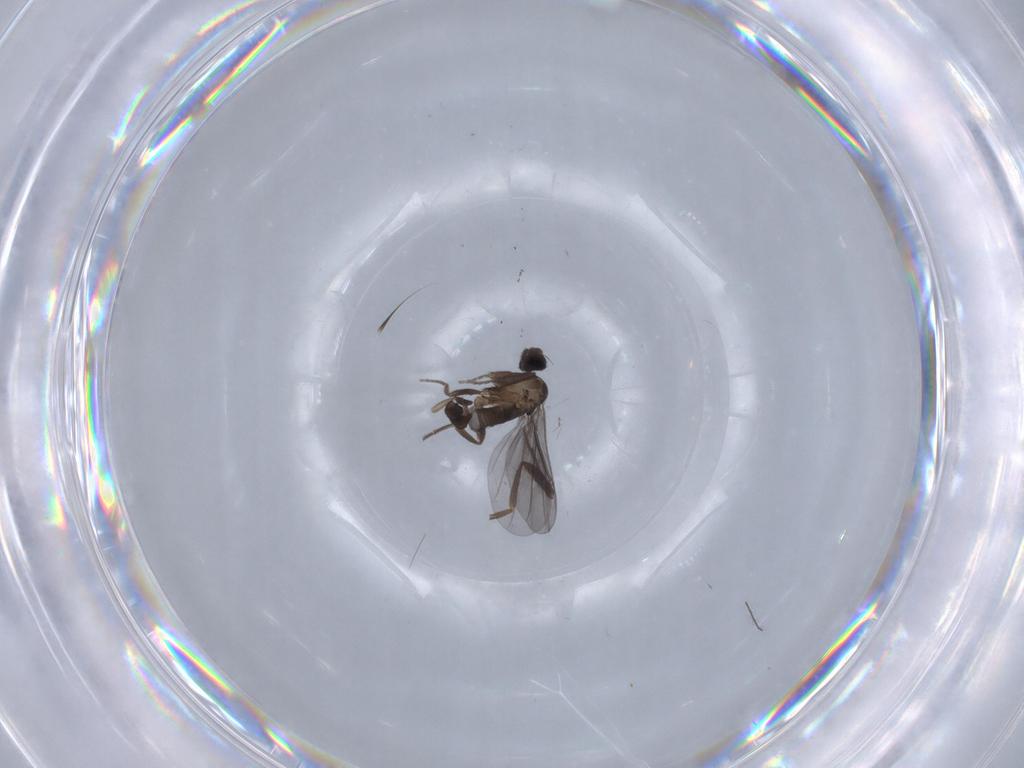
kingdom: Animalia
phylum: Arthropoda
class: Insecta
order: Diptera
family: Phoridae
